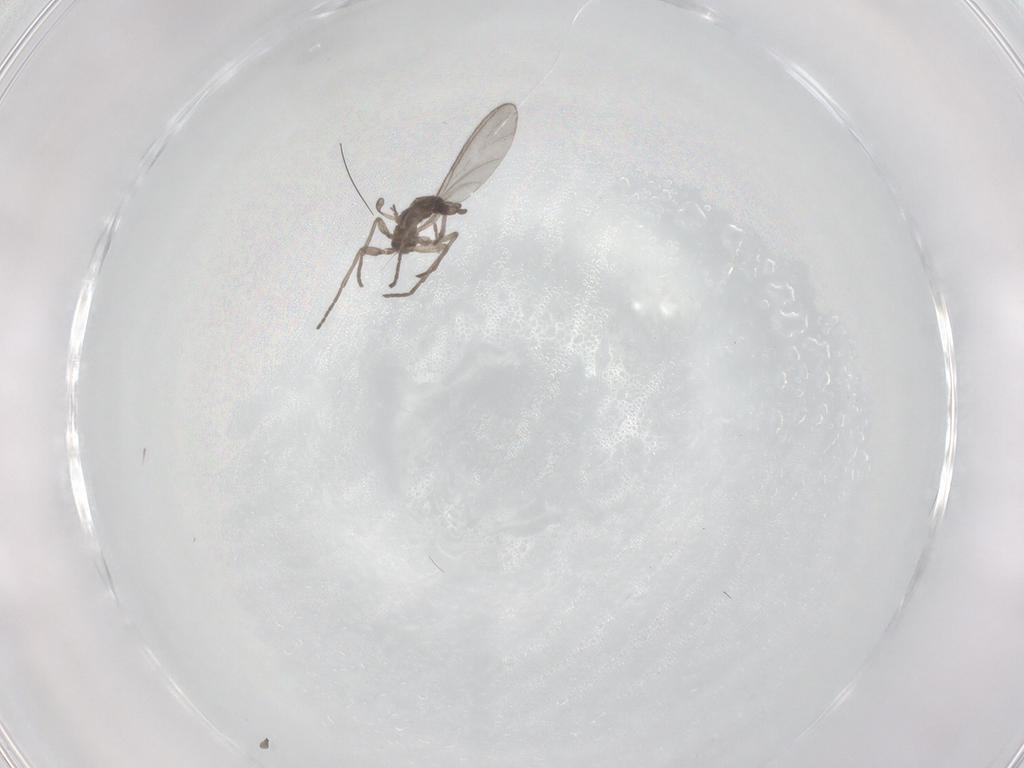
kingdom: Animalia
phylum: Arthropoda
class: Insecta
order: Diptera
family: Sciaridae
